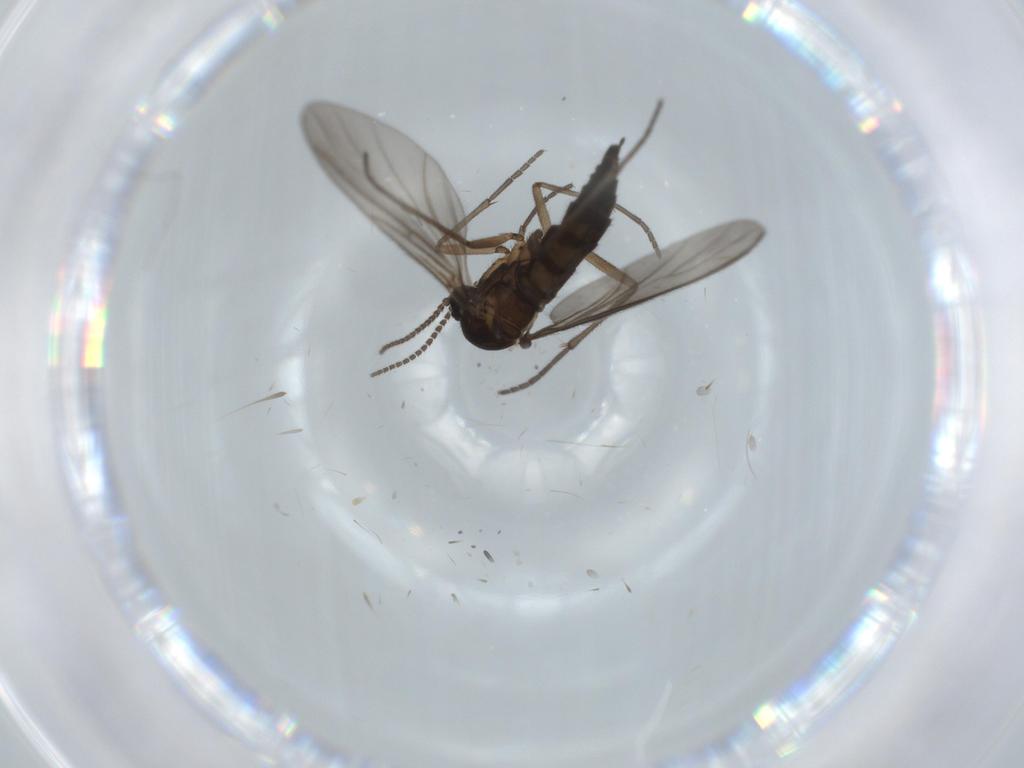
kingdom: Animalia
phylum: Arthropoda
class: Insecta
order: Diptera
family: Sciaridae
